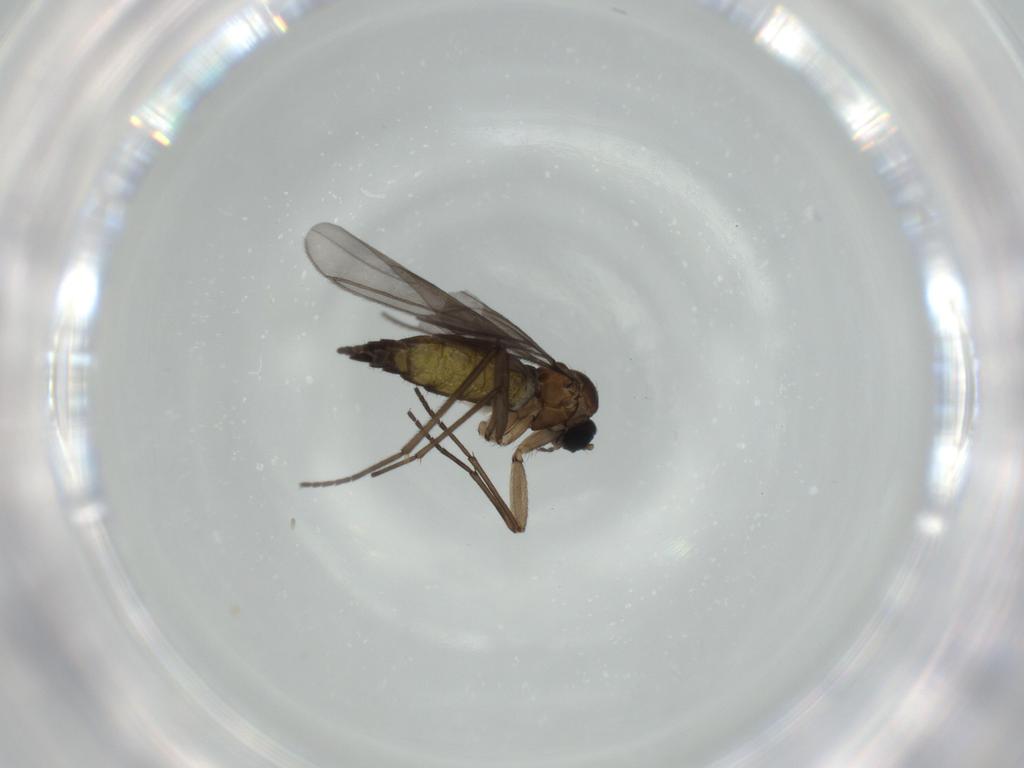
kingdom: Animalia
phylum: Arthropoda
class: Insecta
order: Diptera
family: Sciaridae
